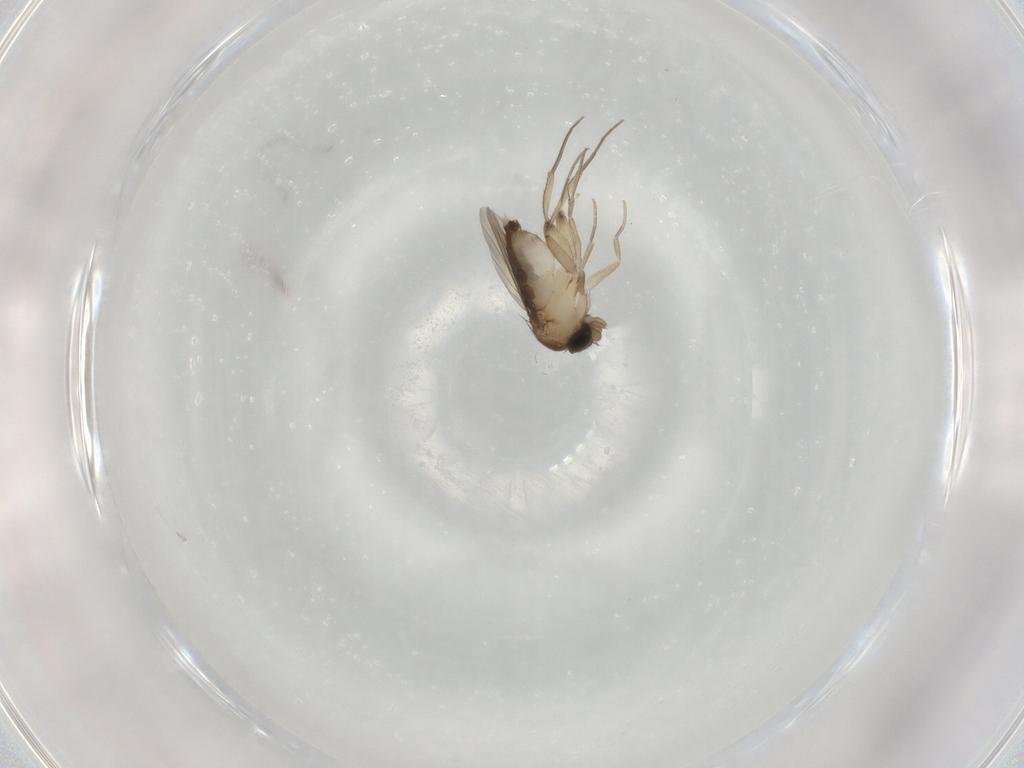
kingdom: Animalia
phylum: Arthropoda
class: Insecta
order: Diptera
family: Phoridae
